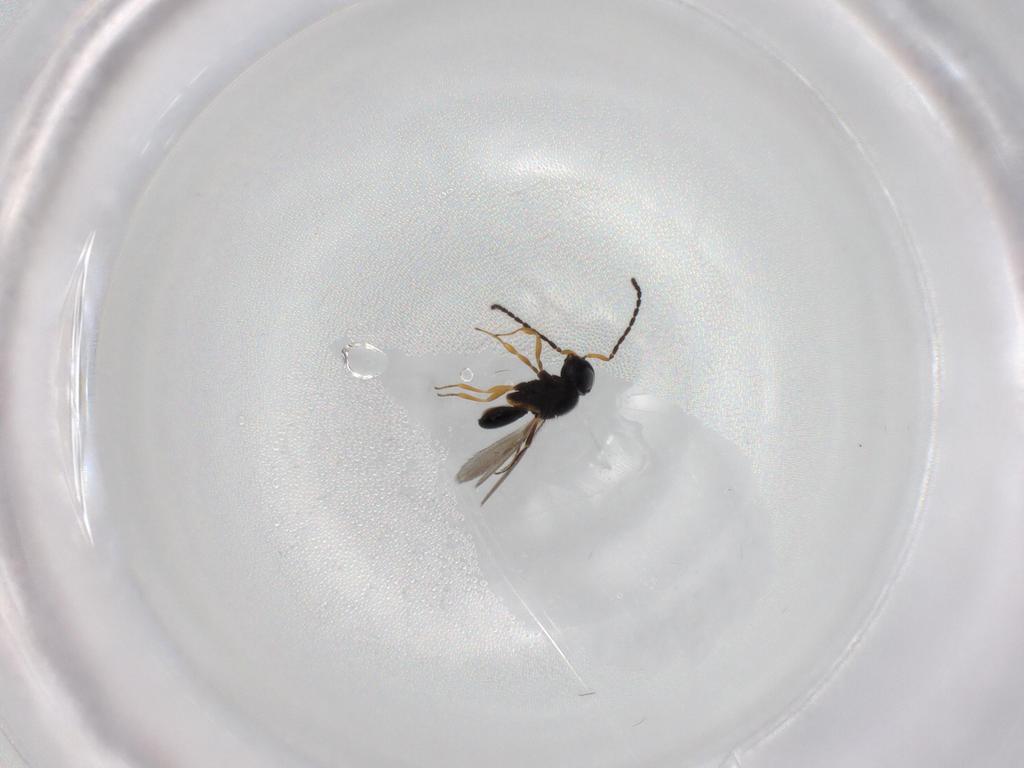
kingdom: Animalia
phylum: Arthropoda
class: Insecta
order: Hymenoptera
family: Scelionidae
